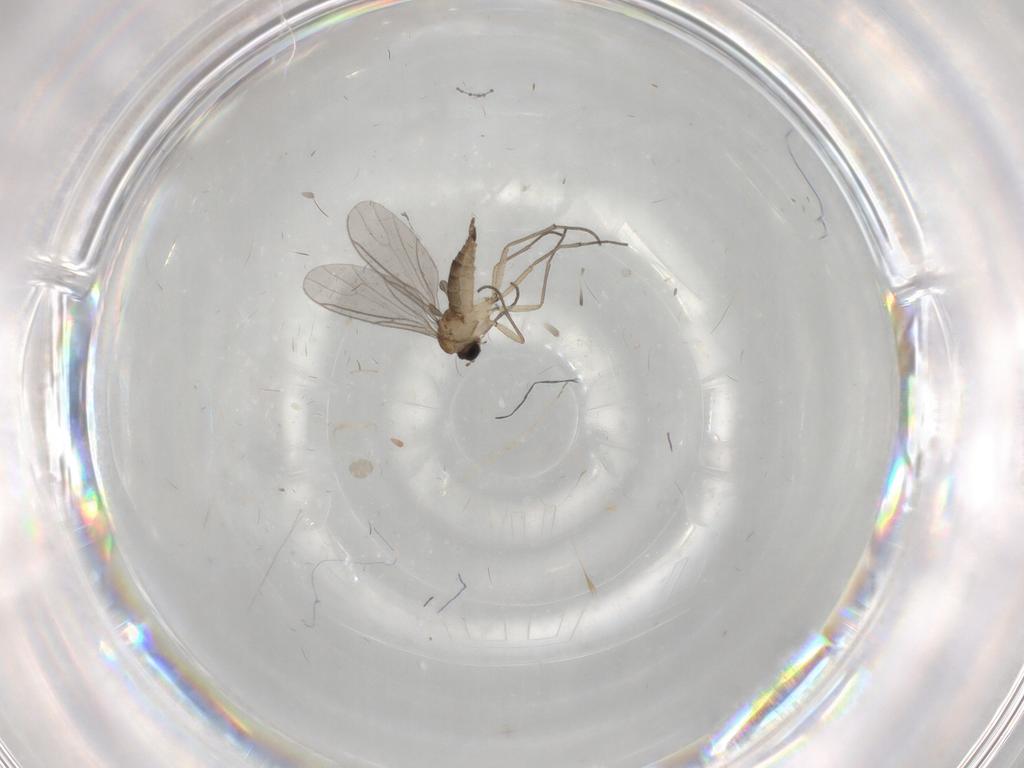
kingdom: Animalia
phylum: Arthropoda
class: Insecta
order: Diptera
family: Sciaridae
